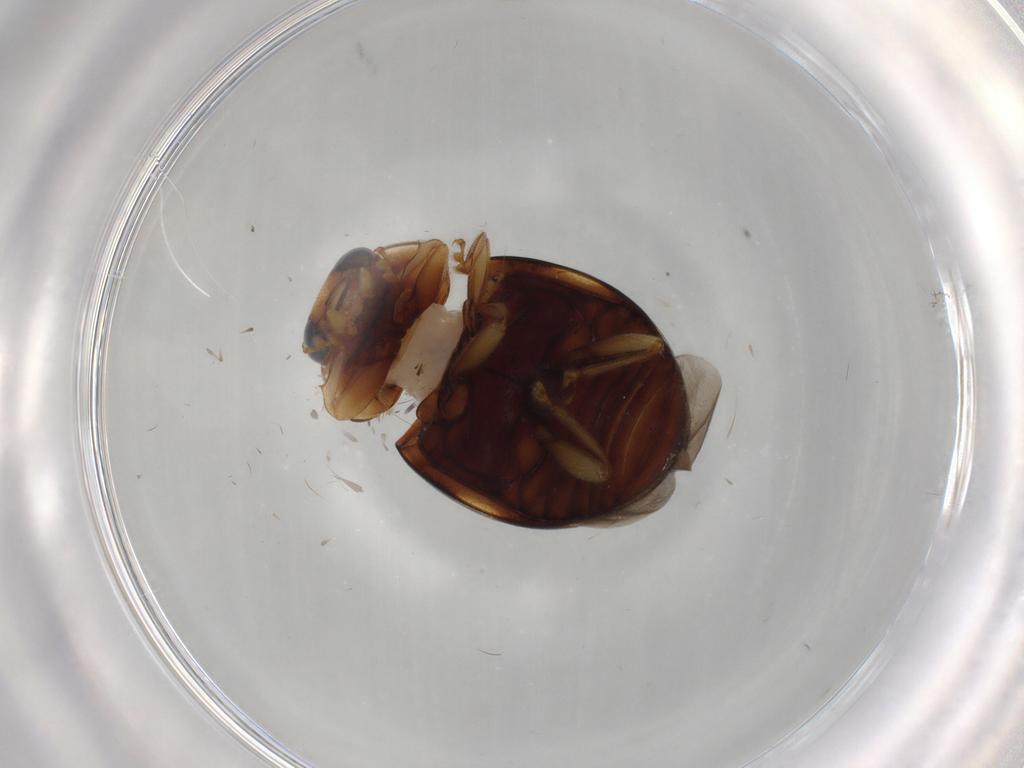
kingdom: Animalia
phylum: Arthropoda
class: Insecta
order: Coleoptera
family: Coccinellidae
